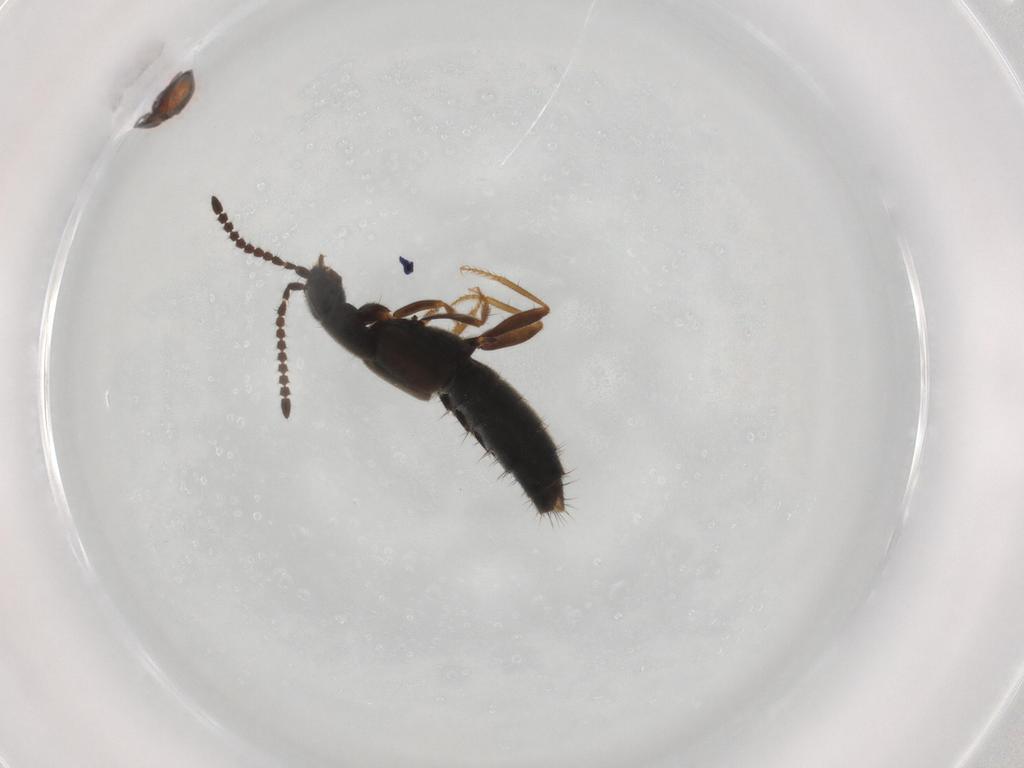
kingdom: Animalia
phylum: Arthropoda
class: Insecta
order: Coleoptera
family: Staphylinidae
